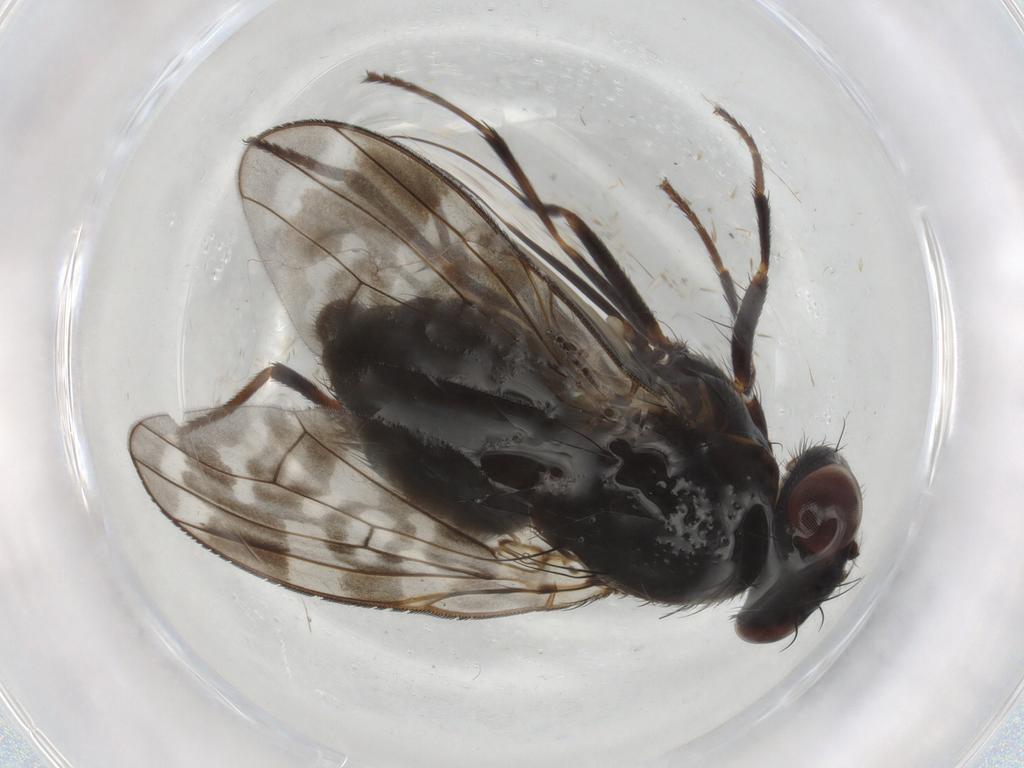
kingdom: Animalia
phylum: Arthropoda
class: Insecta
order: Diptera
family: Cecidomyiidae
